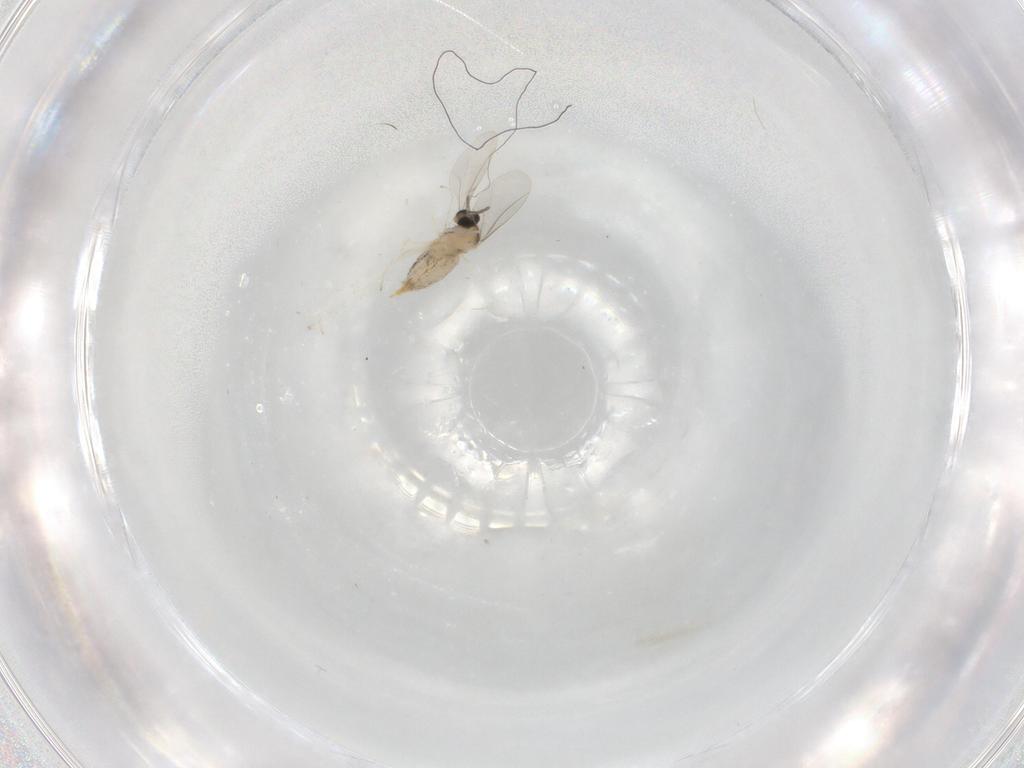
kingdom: Animalia
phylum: Arthropoda
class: Insecta
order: Diptera
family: Cecidomyiidae
